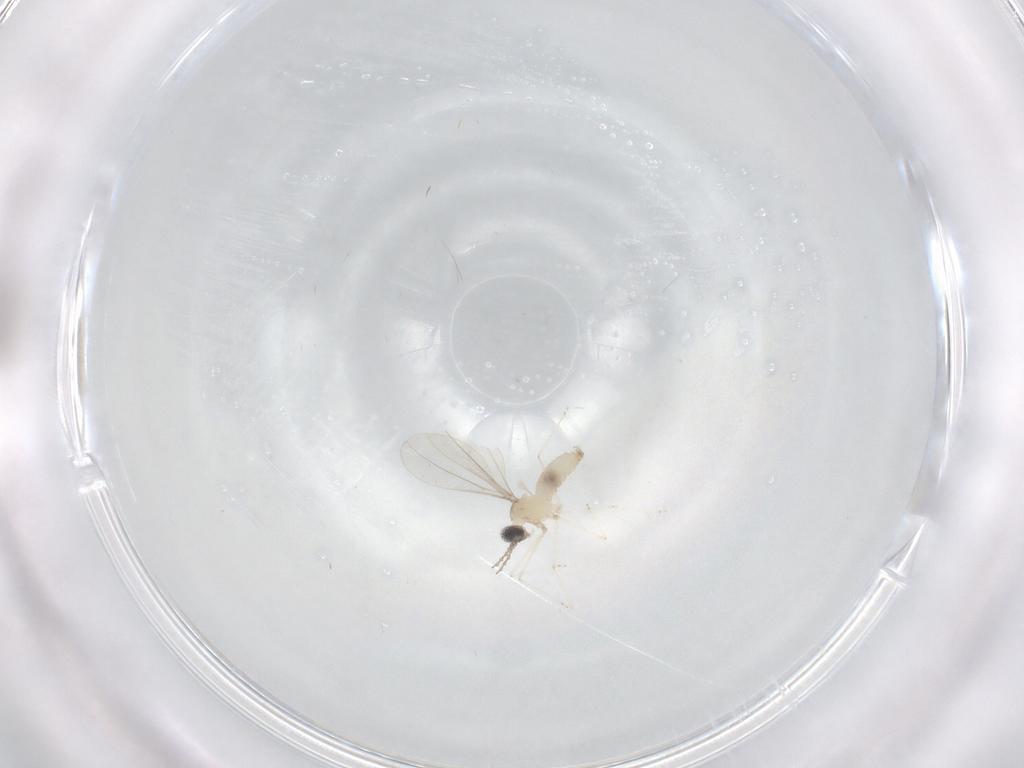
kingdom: Animalia
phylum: Arthropoda
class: Insecta
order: Diptera
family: Cecidomyiidae
